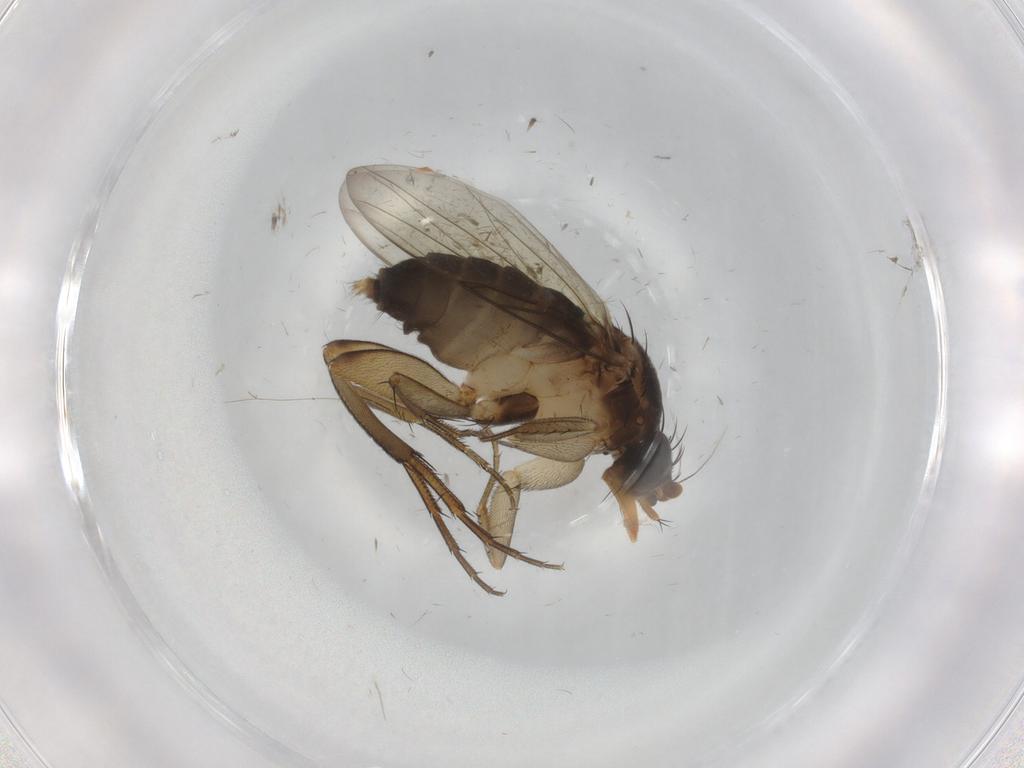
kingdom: Animalia
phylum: Arthropoda
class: Insecta
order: Diptera
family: Ceratopogonidae
